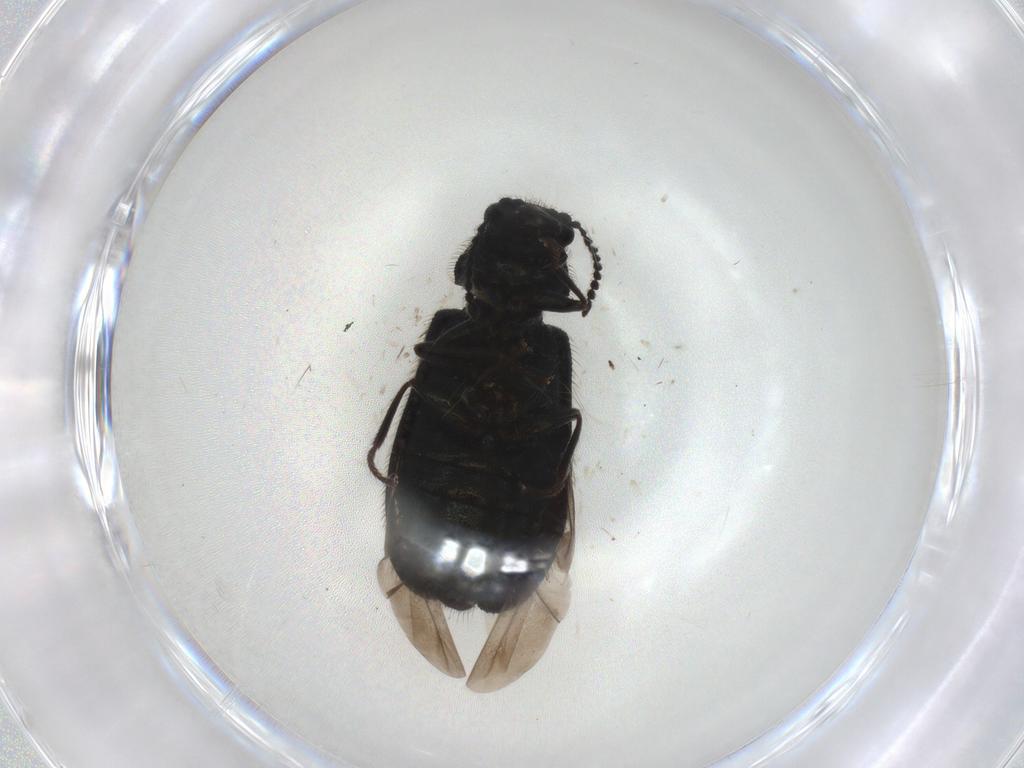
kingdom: Animalia
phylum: Arthropoda
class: Insecta
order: Coleoptera
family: Melyridae
